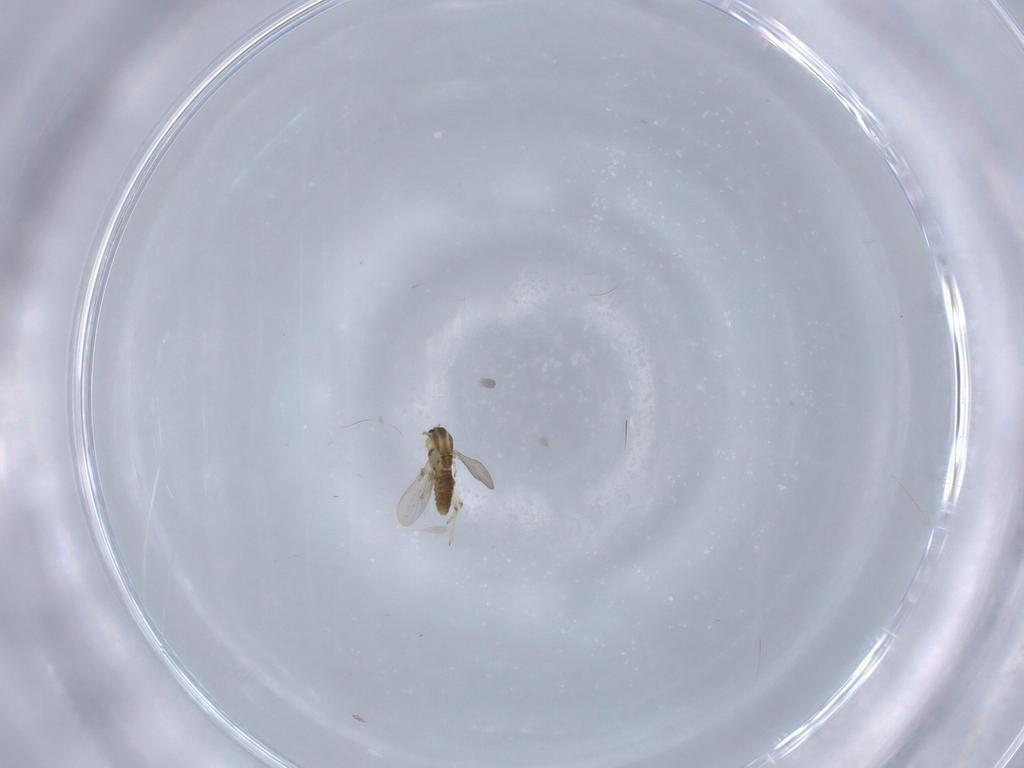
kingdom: Animalia
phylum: Arthropoda
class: Insecta
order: Diptera
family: Chironomidae
